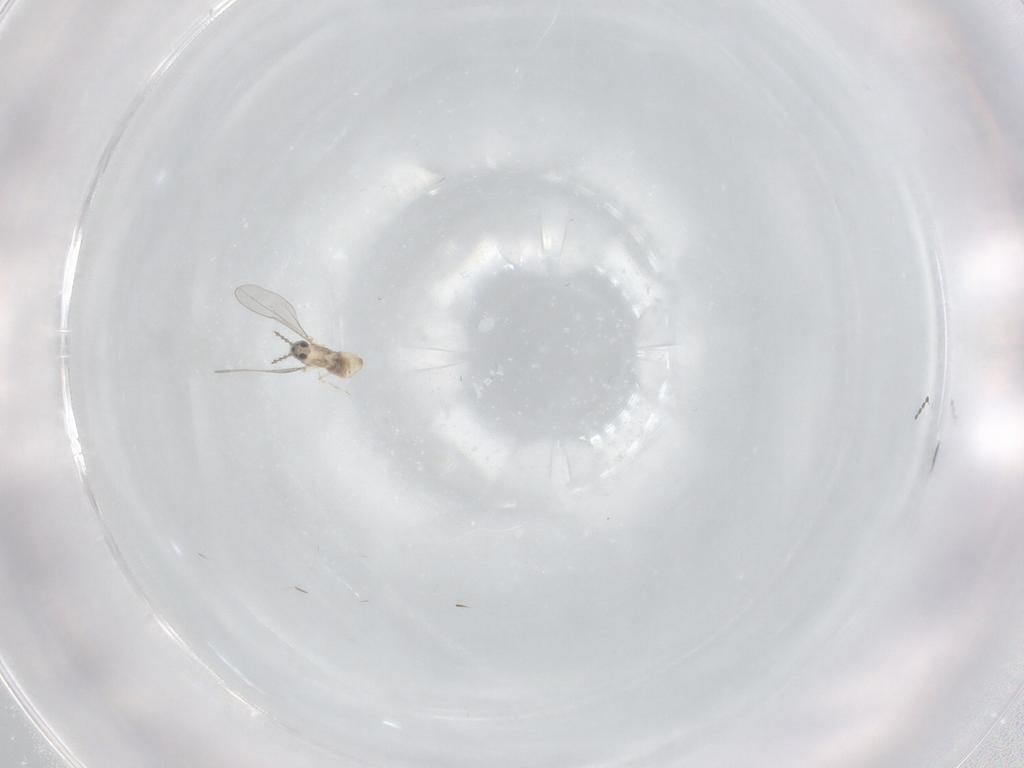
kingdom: Animalia
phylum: Arthropoda
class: Insecta
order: Diptera
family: Cecidomyiidae
